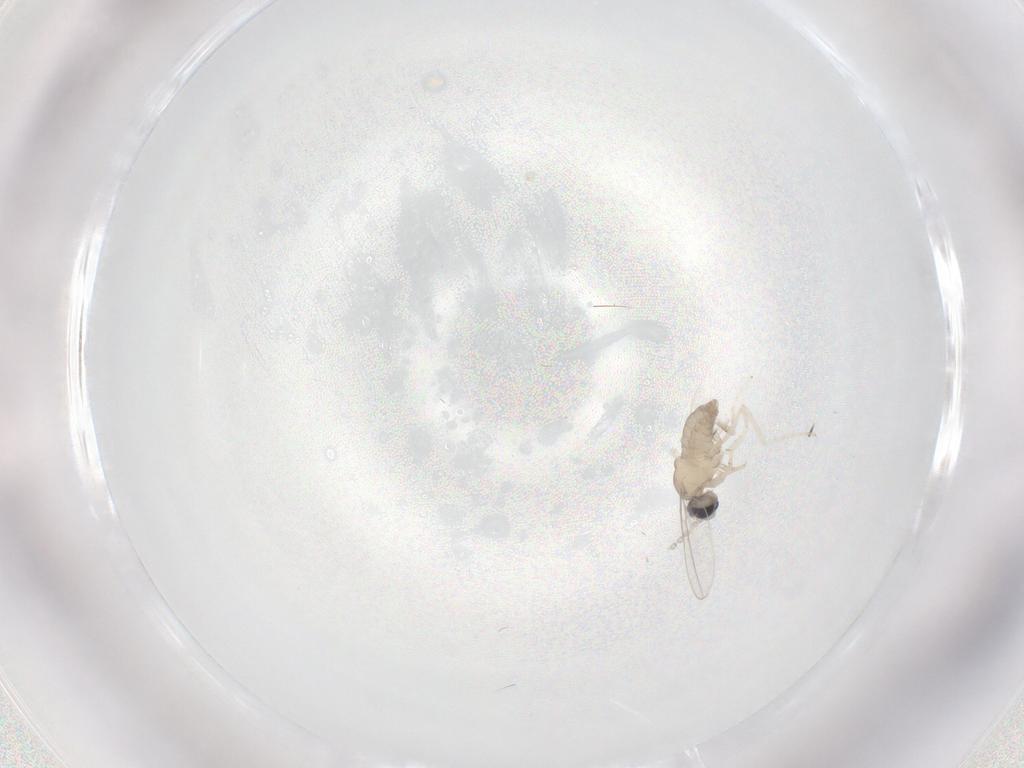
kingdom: Animalia
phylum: Arthropoda
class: Insecta
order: Diptera
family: Cecidomyiidae
